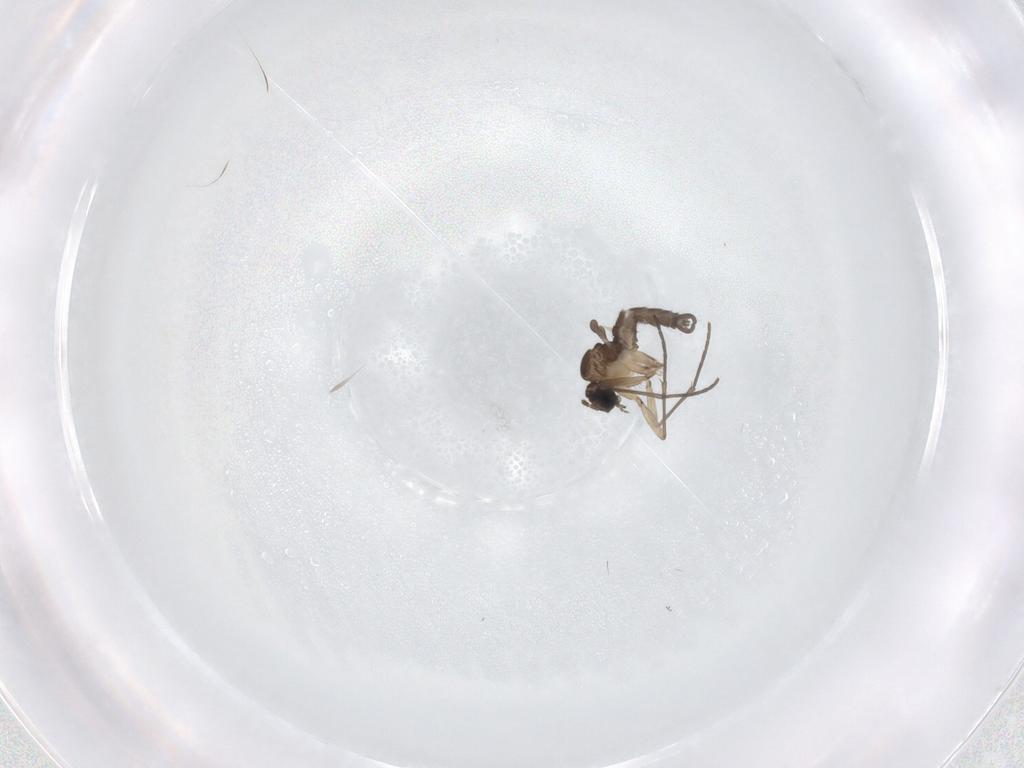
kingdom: Animalia
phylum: Arthropoda
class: Insecta
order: Diptera
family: Sciaridae
